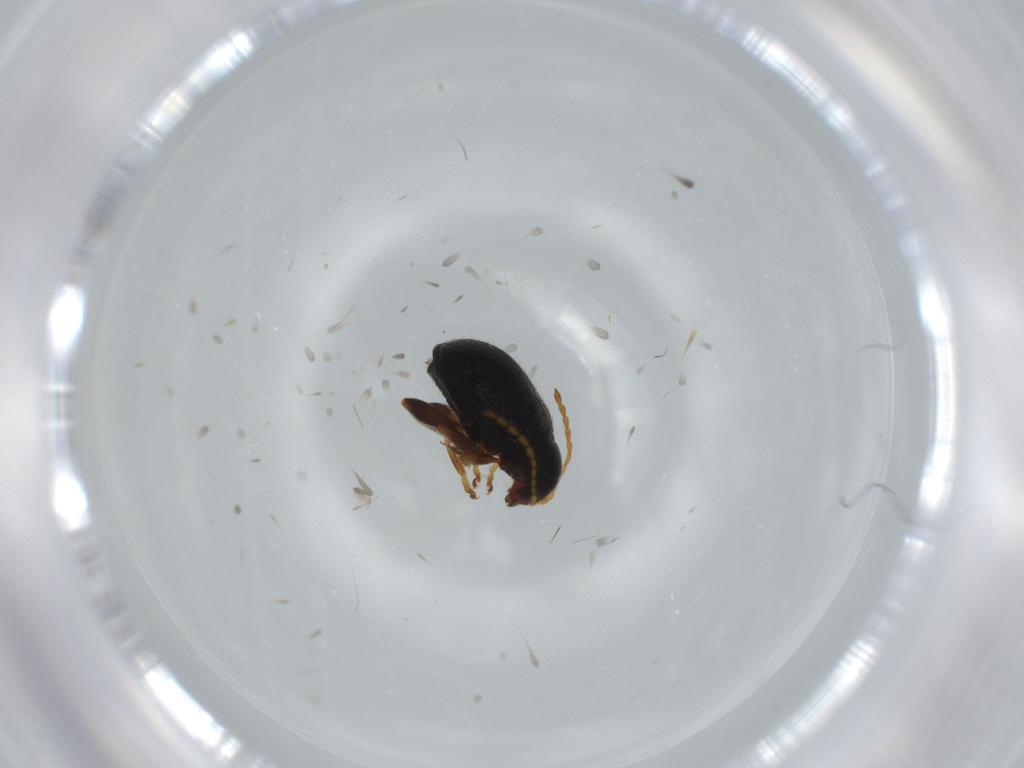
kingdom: Animalia
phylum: Arthropoda
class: Insecta
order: Coleoptera
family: Chrysomelidae
